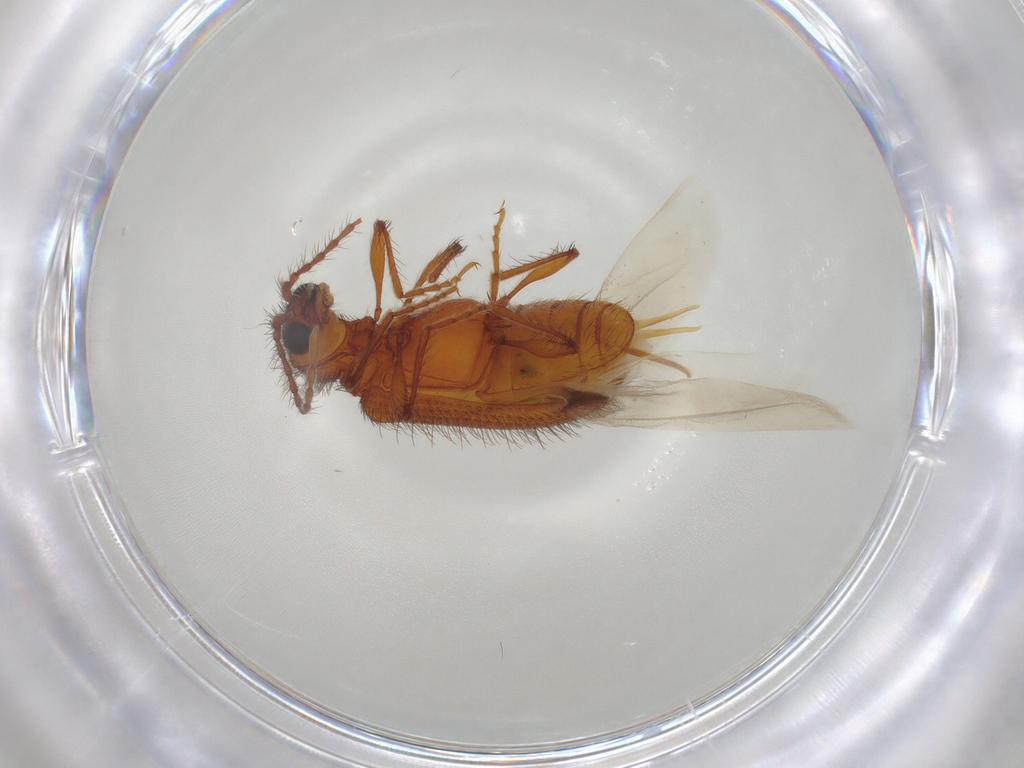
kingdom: Animalia
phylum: Arthropoda
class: Insecta
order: Coleoptera
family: Ptinidae
